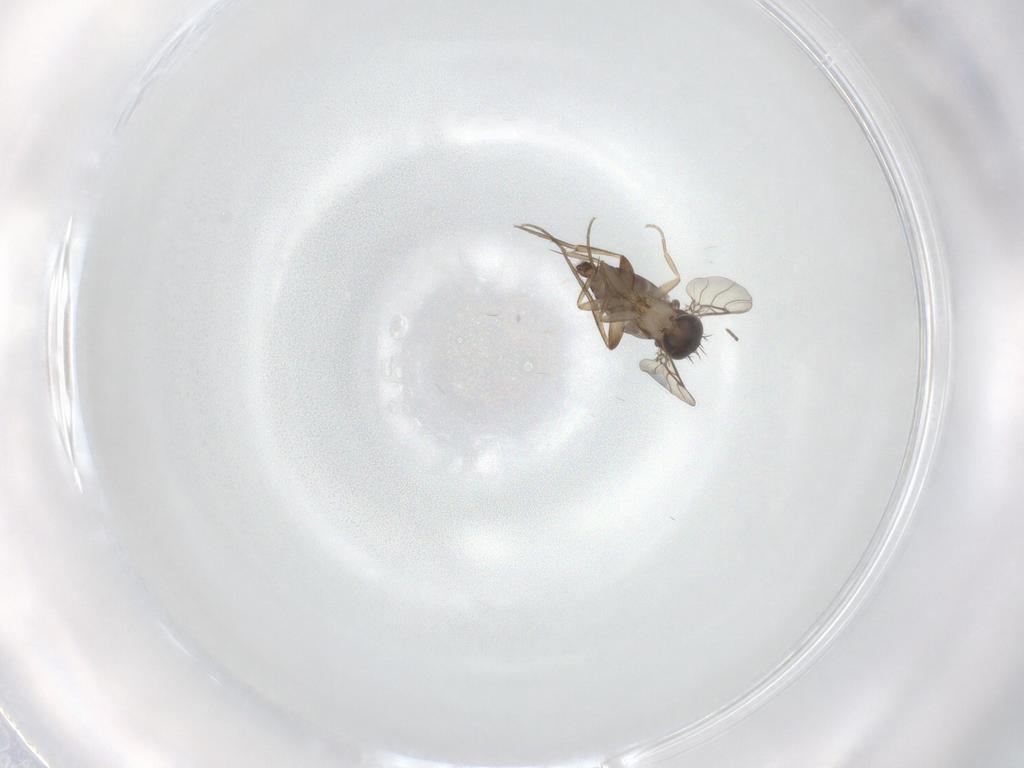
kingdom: Animalia
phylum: Arthropoda
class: Insecta
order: Diptera
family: Phoridae
